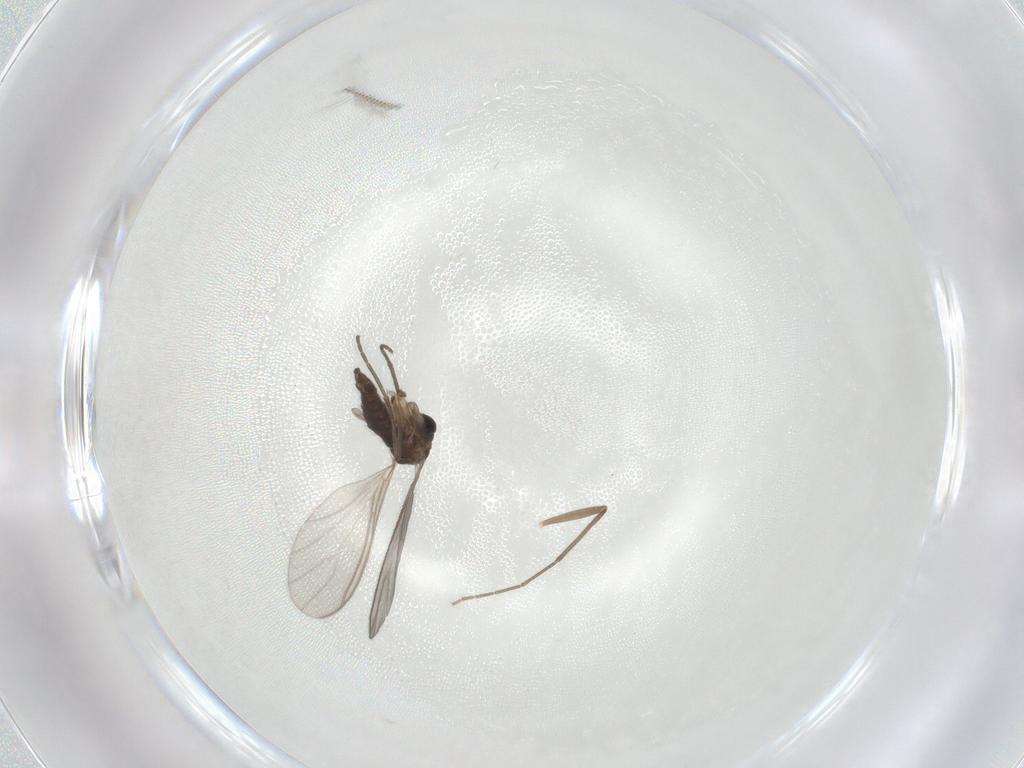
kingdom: Animalia
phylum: Arthropoda
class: Insecta
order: Diptera
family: Sciaridae
